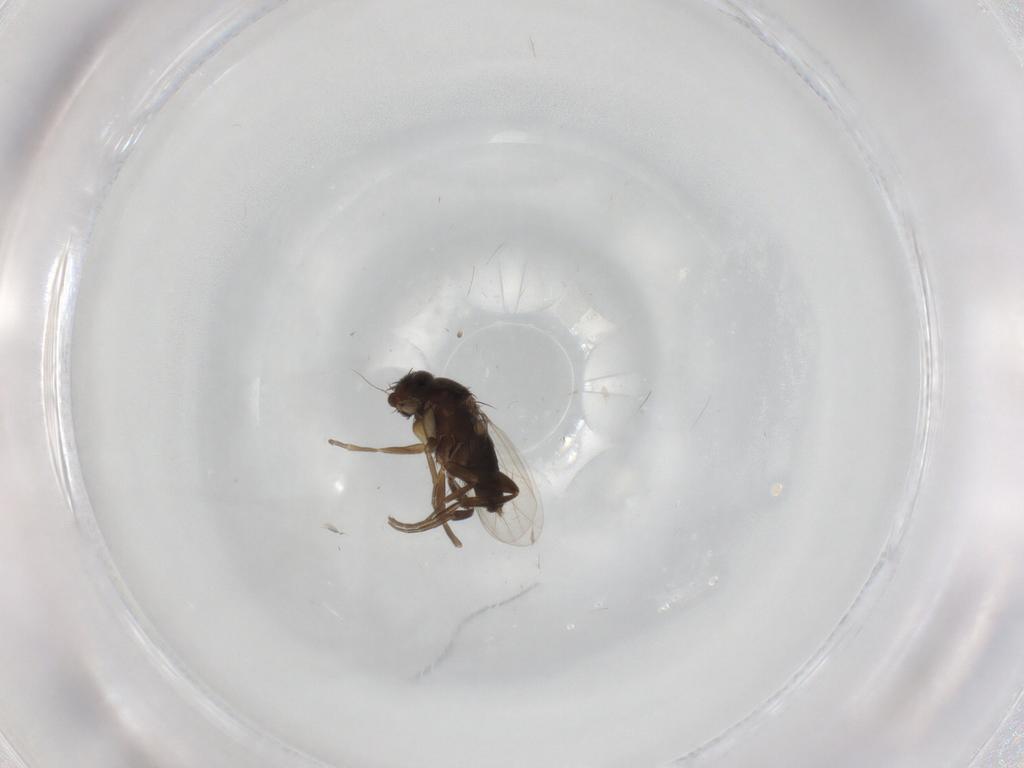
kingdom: Animalia
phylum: Arthropoda
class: Insecta
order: Diptera
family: Phoridae
